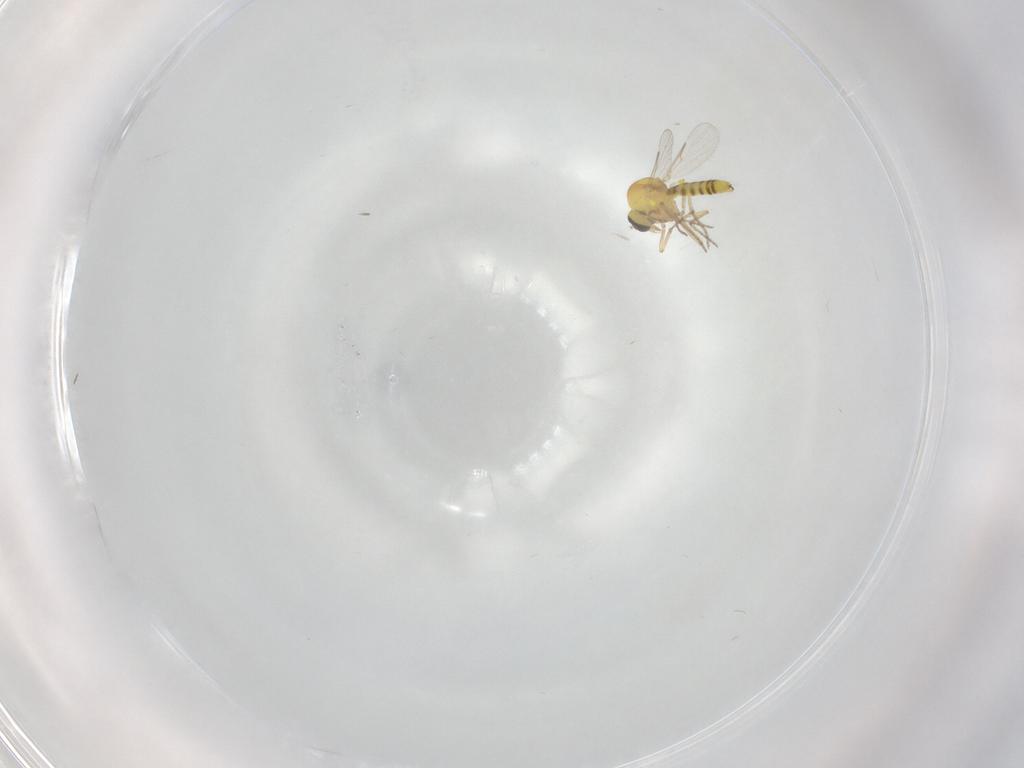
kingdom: Animalia
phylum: Arthropoda
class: Insecta
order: Diptera
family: Ceratopogonidae
